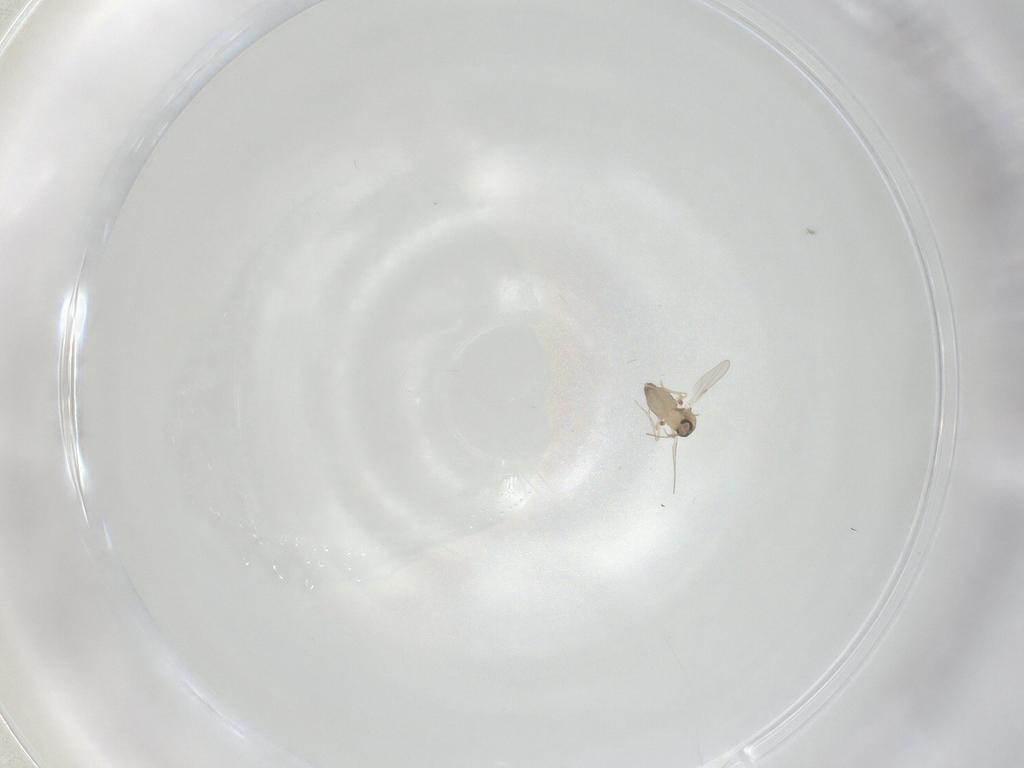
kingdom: Animalia
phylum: Arthropoda
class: Insecta
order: Diptera
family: Ceratopogonidae
